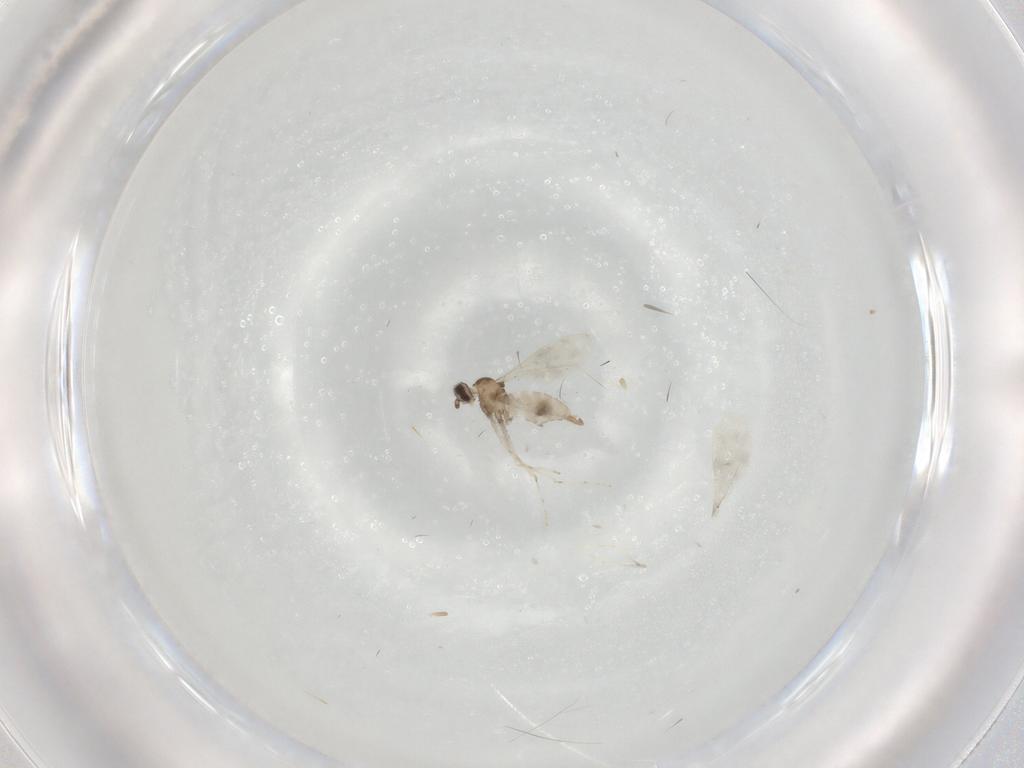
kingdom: Animalia
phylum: Arthropoda
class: Insecta
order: Diptera
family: Cecidomyiidae
